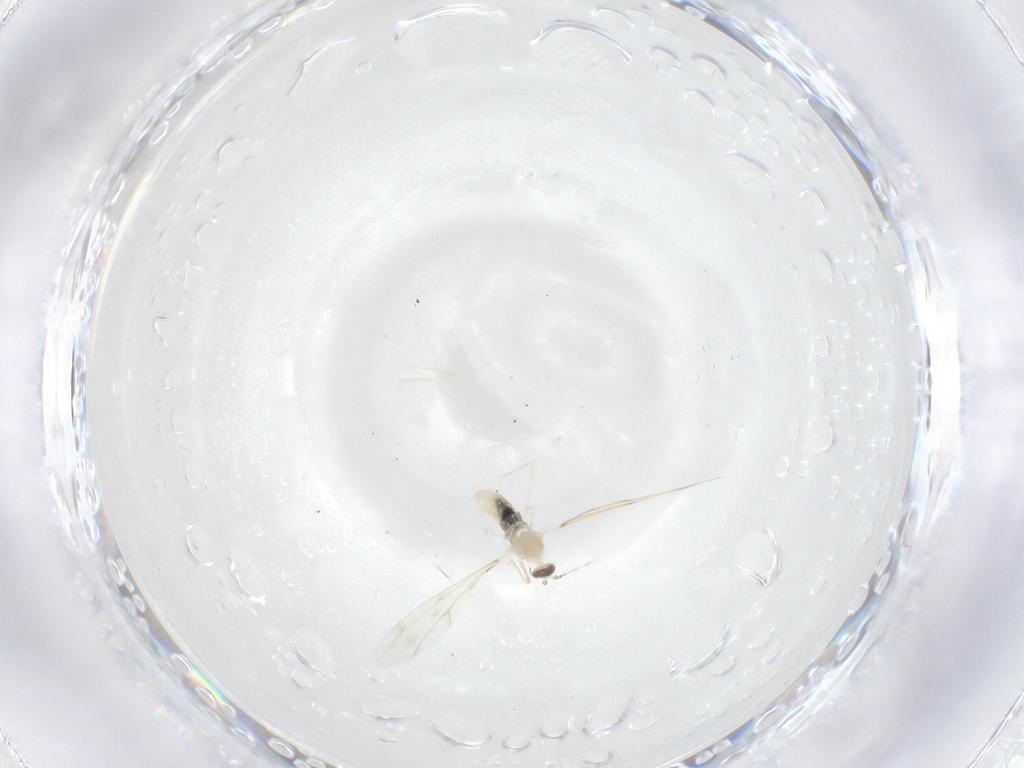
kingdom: Animalia
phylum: Arthropoda
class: Insecta
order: Diptera
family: Cecidomyiidae
